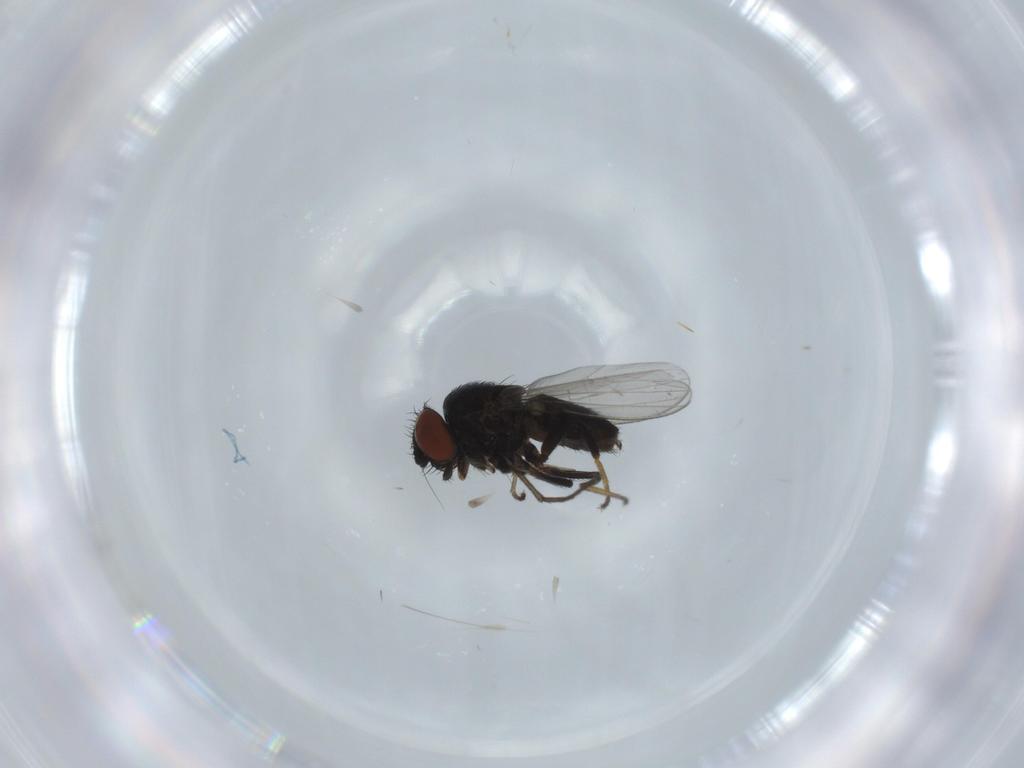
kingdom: Animalia
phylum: Arthropoda
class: Insecta
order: Diptera
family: Milichiidae
